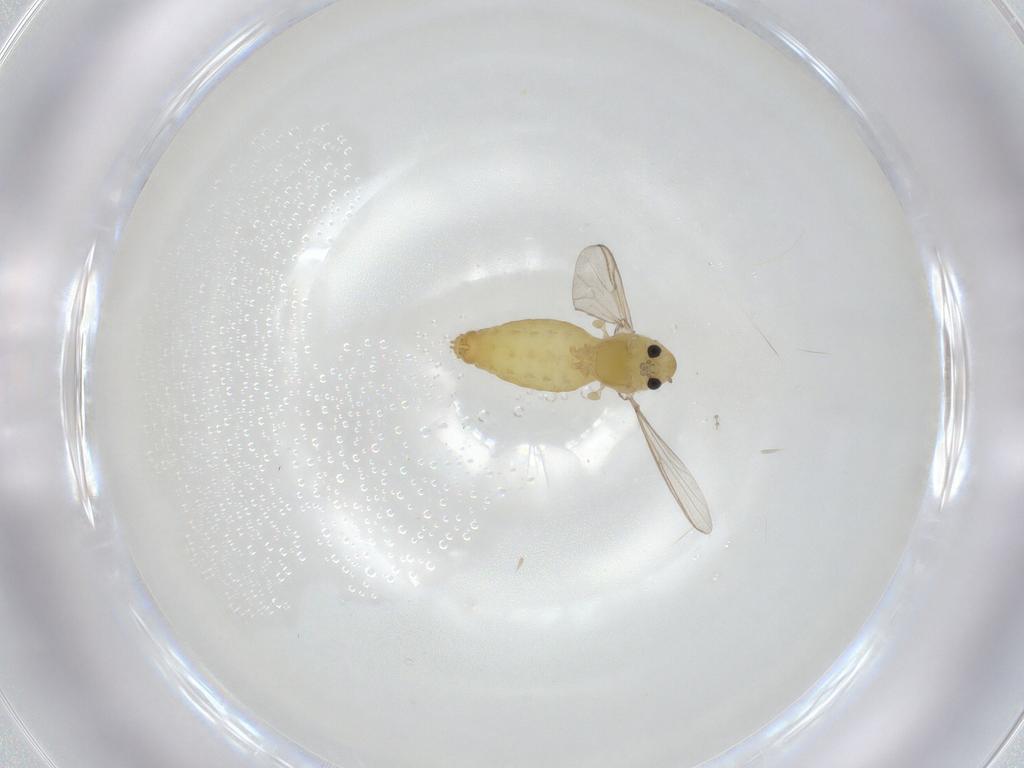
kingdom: Animalia
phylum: Arthropoda
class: Insecta
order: Diptera
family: Ceratopogonidae
